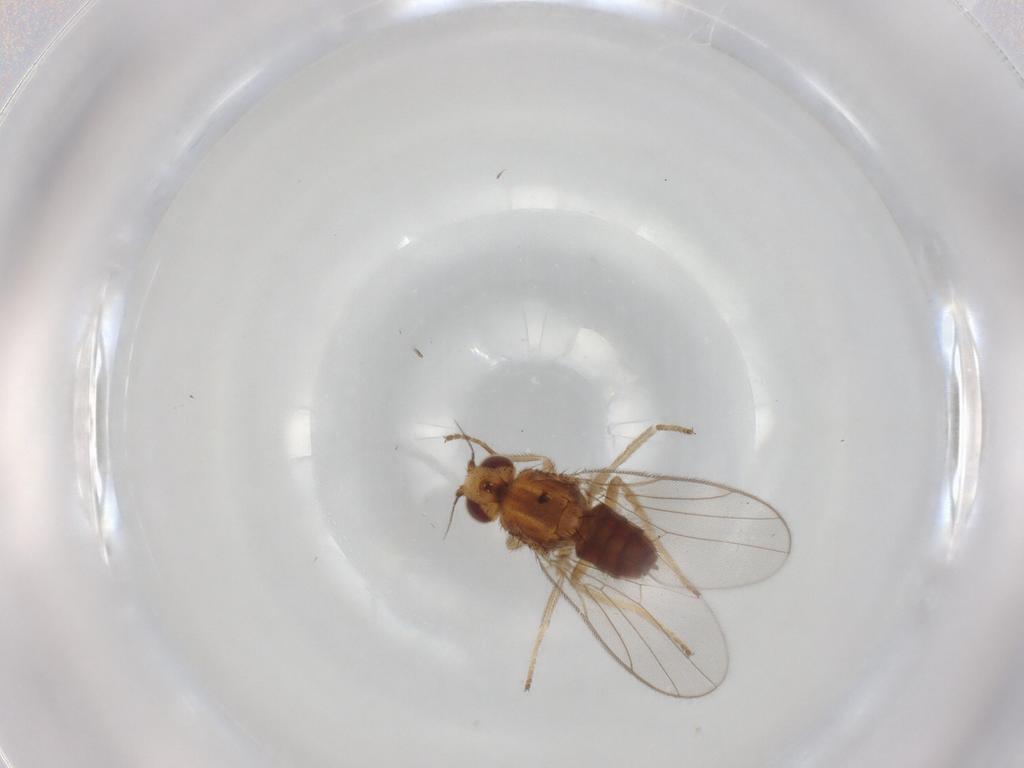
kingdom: Animalia
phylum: Arthropoda
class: Insecta
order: Diptera
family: Chloropidae
